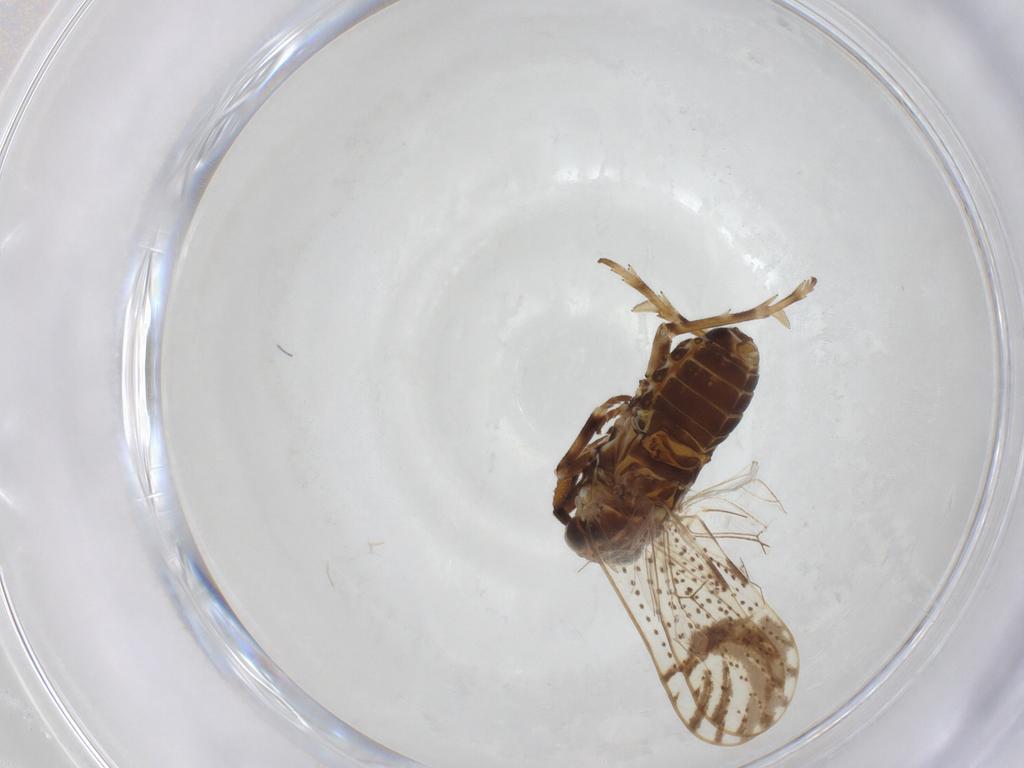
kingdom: Animalia
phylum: Arthropoda
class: Insecta
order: Hemiptera
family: Delphacidae
